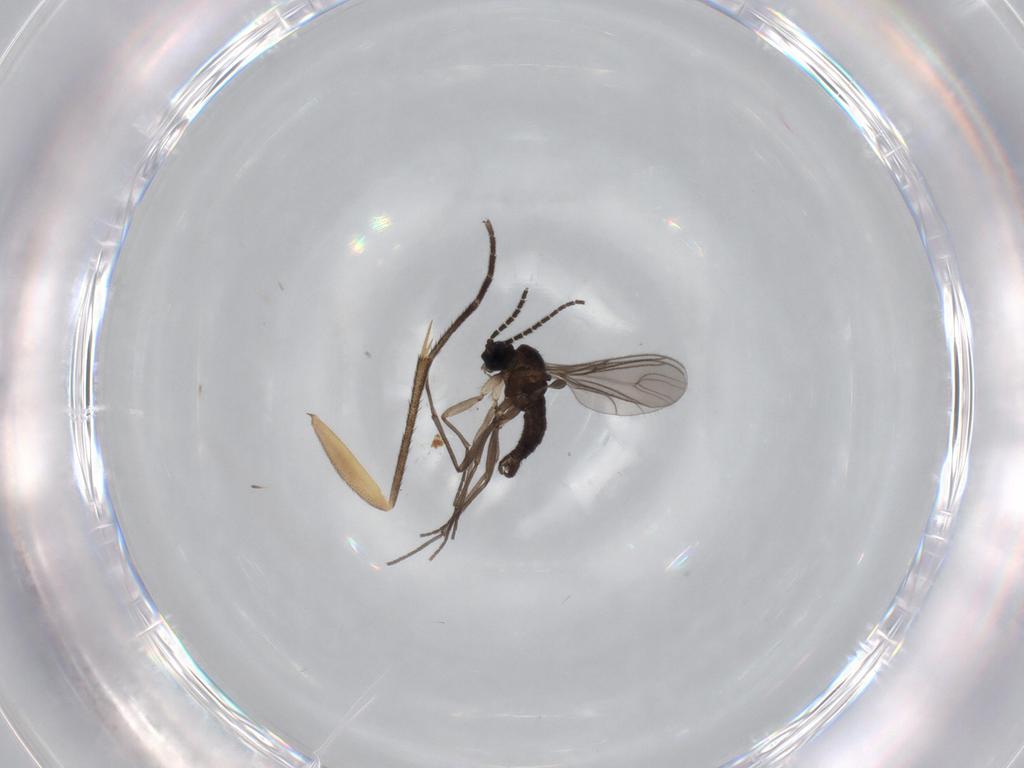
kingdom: Animalia
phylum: Arthropoda
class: Insecta
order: Diptera
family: Sciaridae
